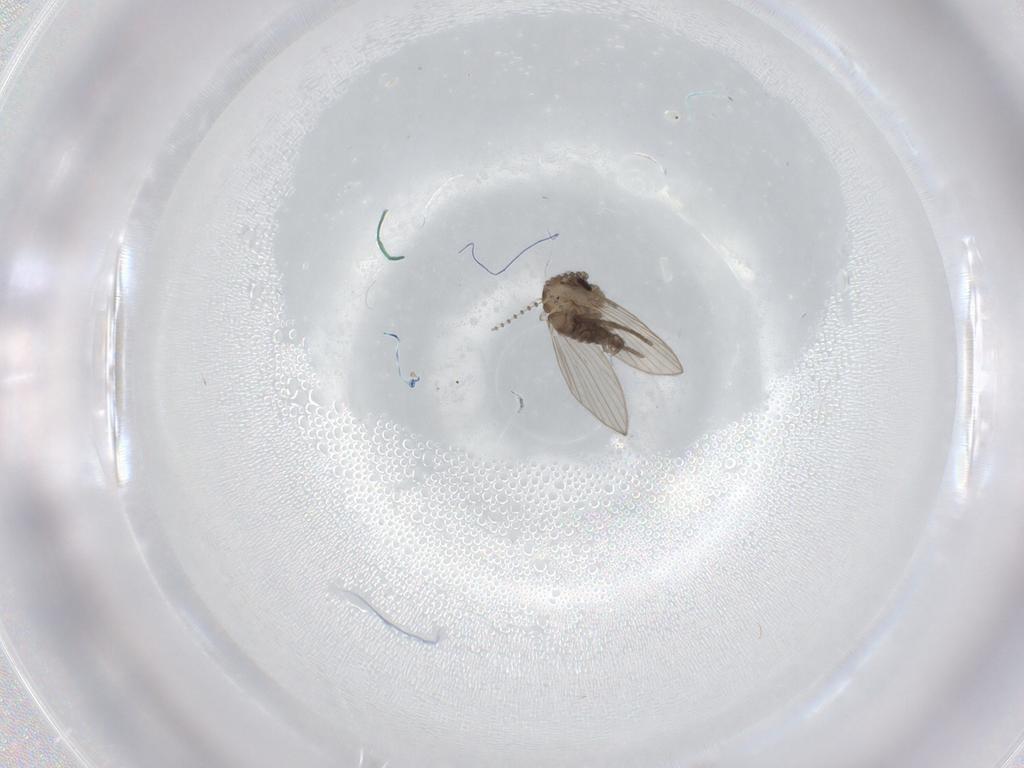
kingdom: Animalia
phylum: Arthropoda
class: Insecta
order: Diptera
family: Psychodidae
